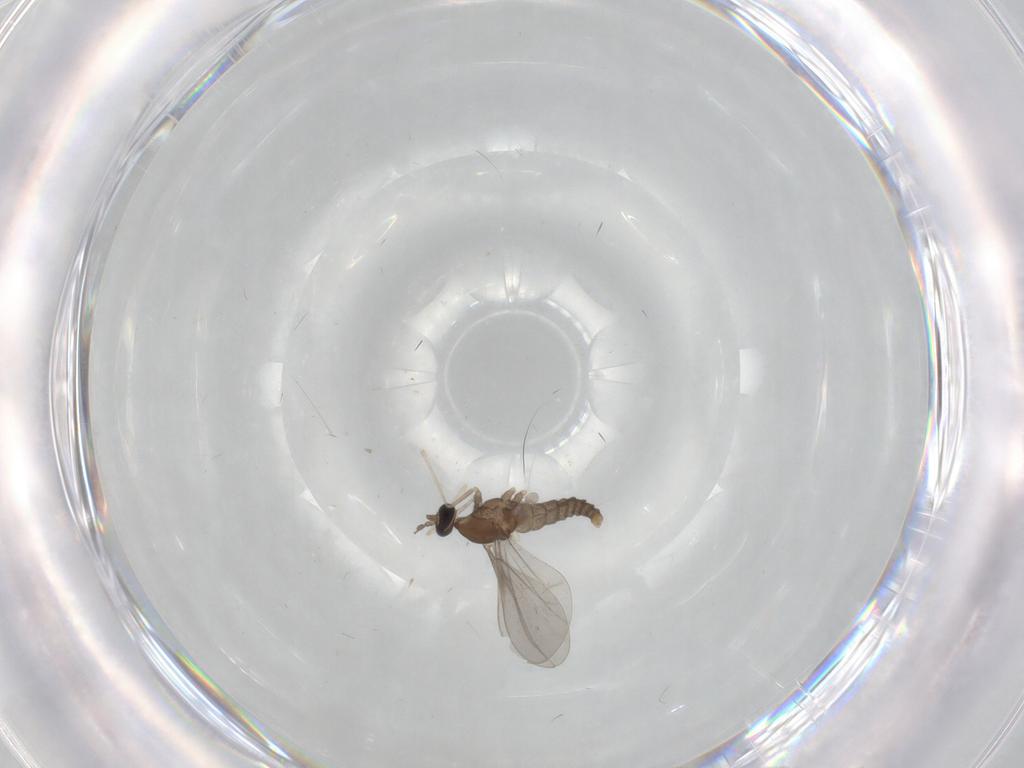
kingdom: Animalia
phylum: Arthropoda
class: Insecta
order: Diptera
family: Cecidomyiidae
